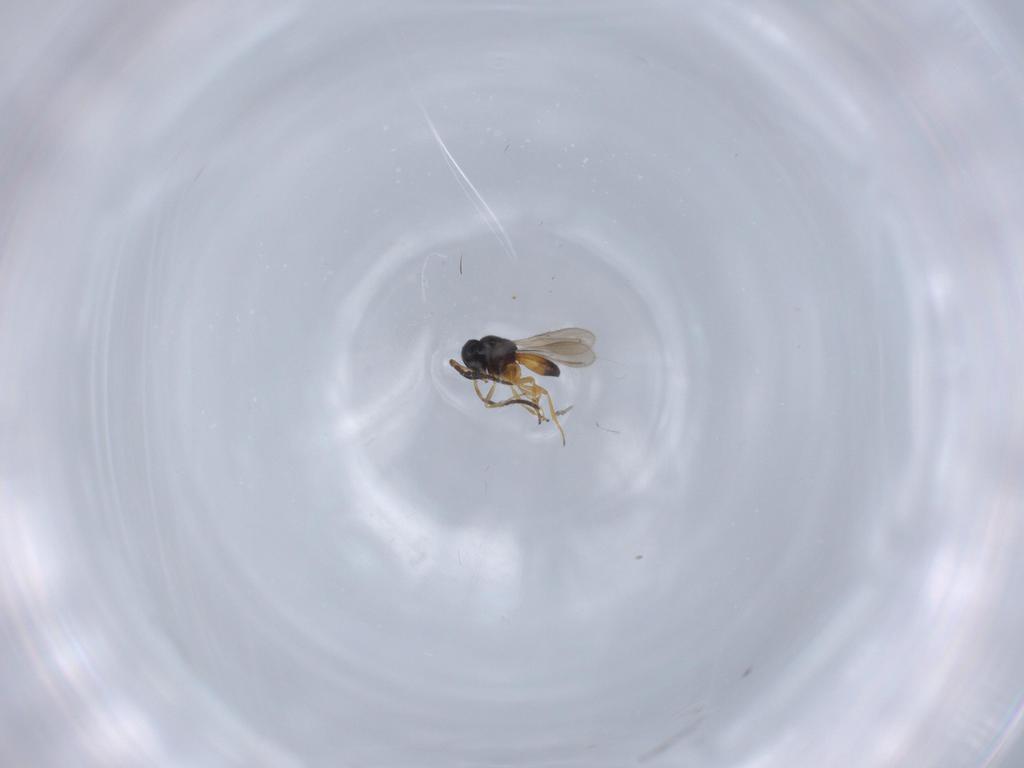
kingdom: Animalia
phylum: Arthropoda
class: Insecta
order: Hymenoptera
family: Scelionidae
